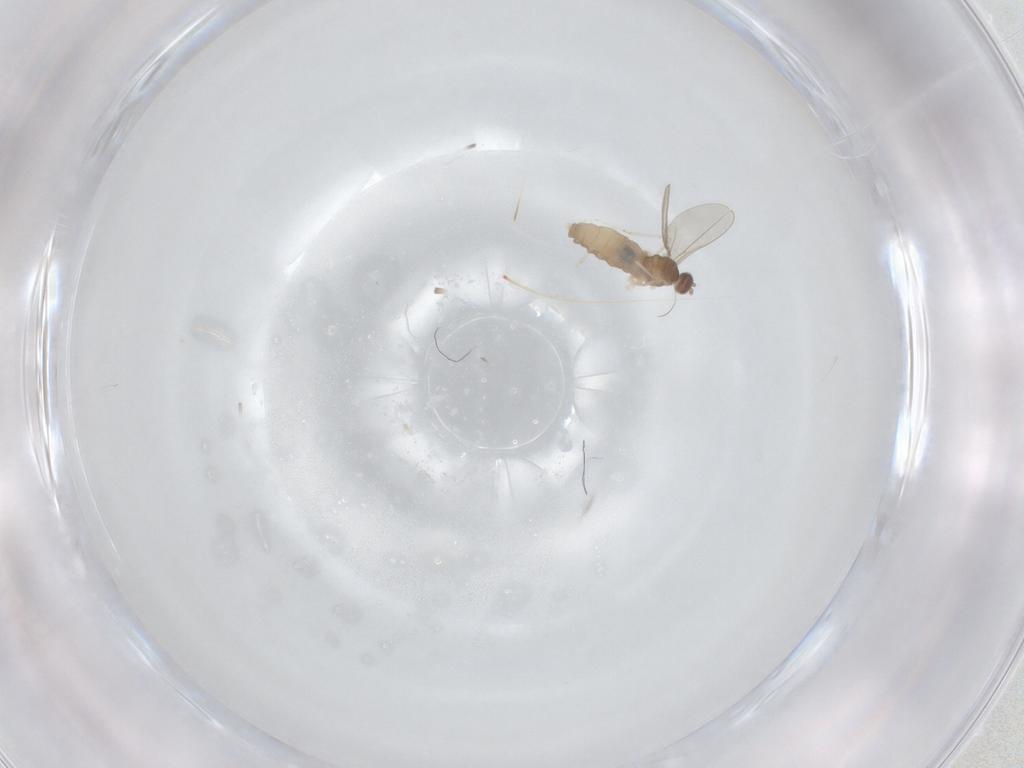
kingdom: Animalia
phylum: Arthropoda
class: Insecta
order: Diptera
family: Cecidomyiidae
